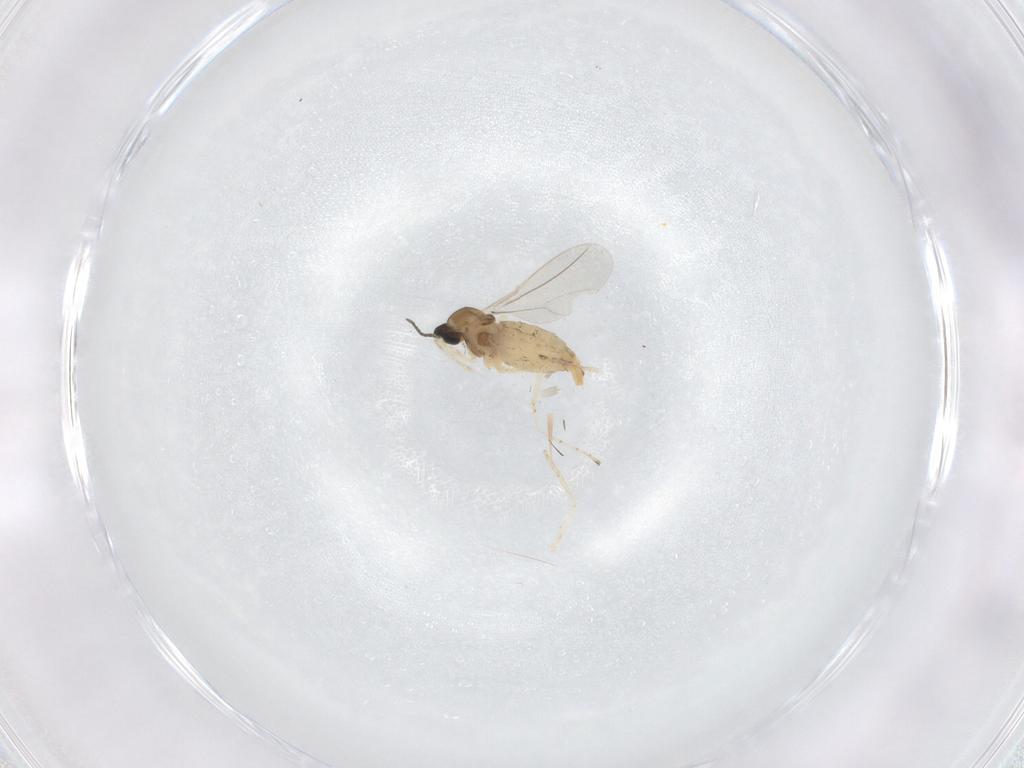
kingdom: Animalia
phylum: Arthropoda
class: Insecta
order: Diptera
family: Cecidomyiidae
